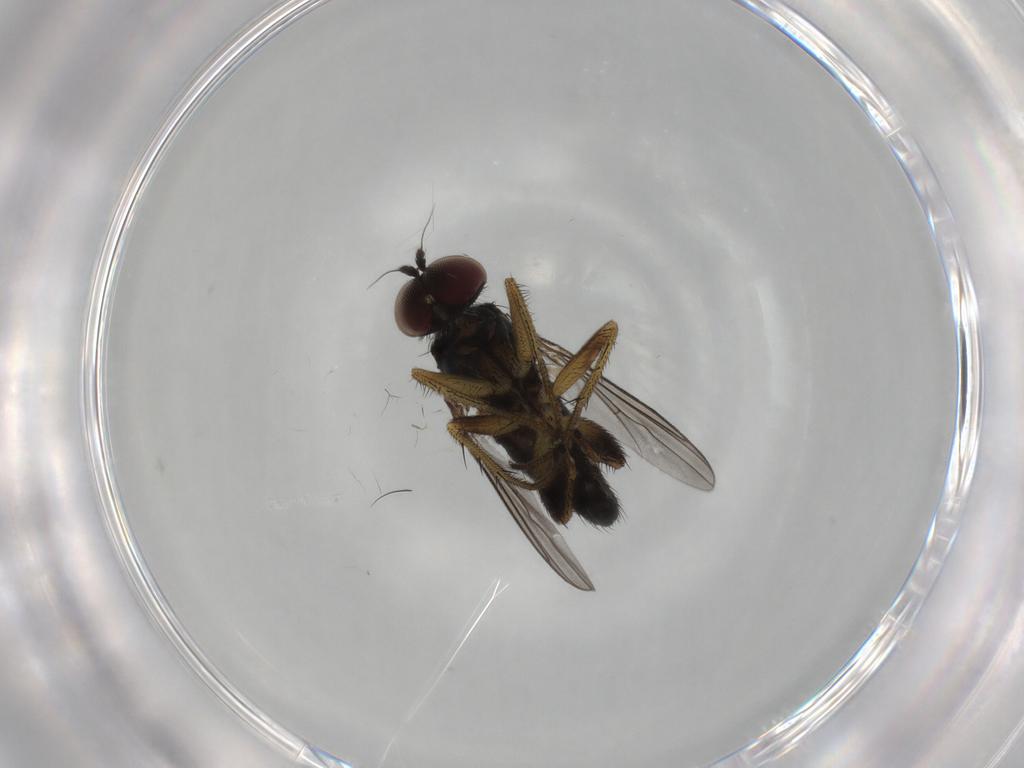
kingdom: Animalia
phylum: Arthropoda
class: Insecta
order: Diptera
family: Dolichopodidae
